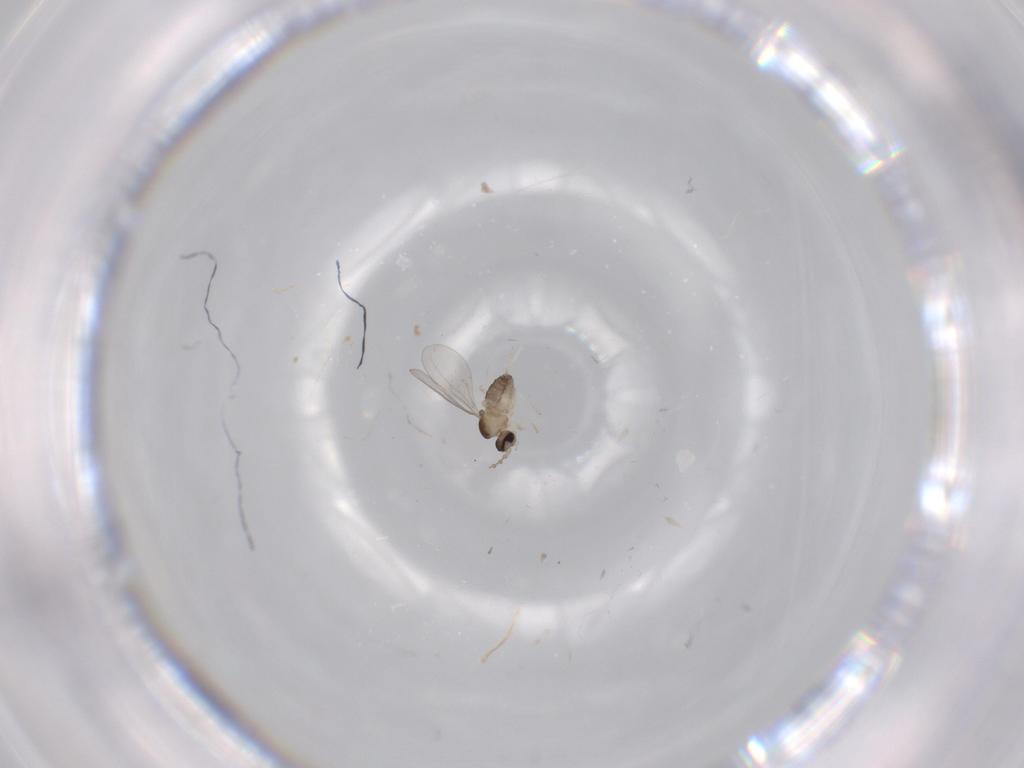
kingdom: Animalia
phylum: Arthropoda
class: Insecta
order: Diptera
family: Cecidomyiidae
